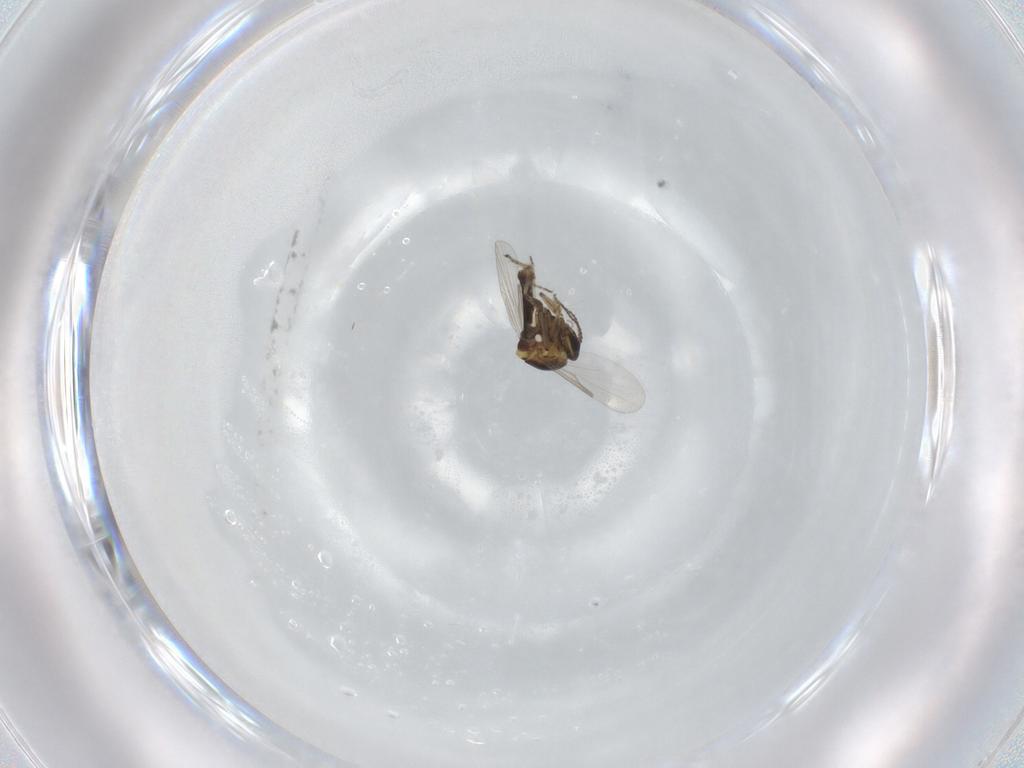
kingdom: Animalia
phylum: Arthropoda
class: Insecta
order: Diptera
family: Ceratopogonidae
